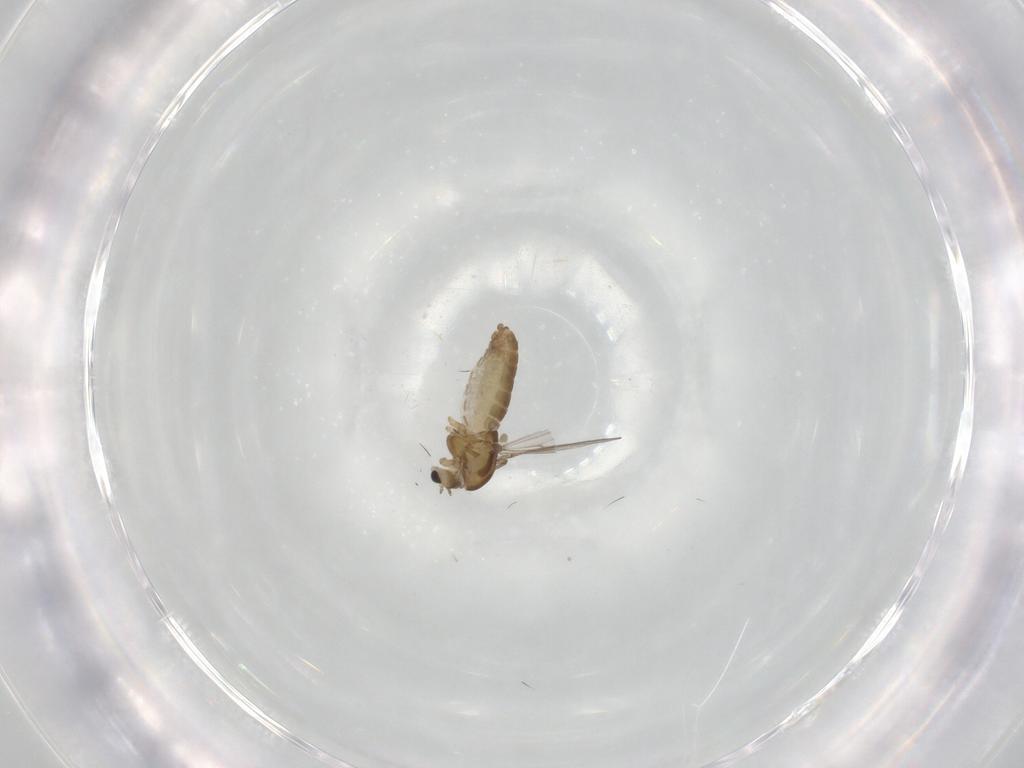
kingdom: Animalia
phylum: Arthropoda
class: Insecta
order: Diptera
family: Chironomidae
